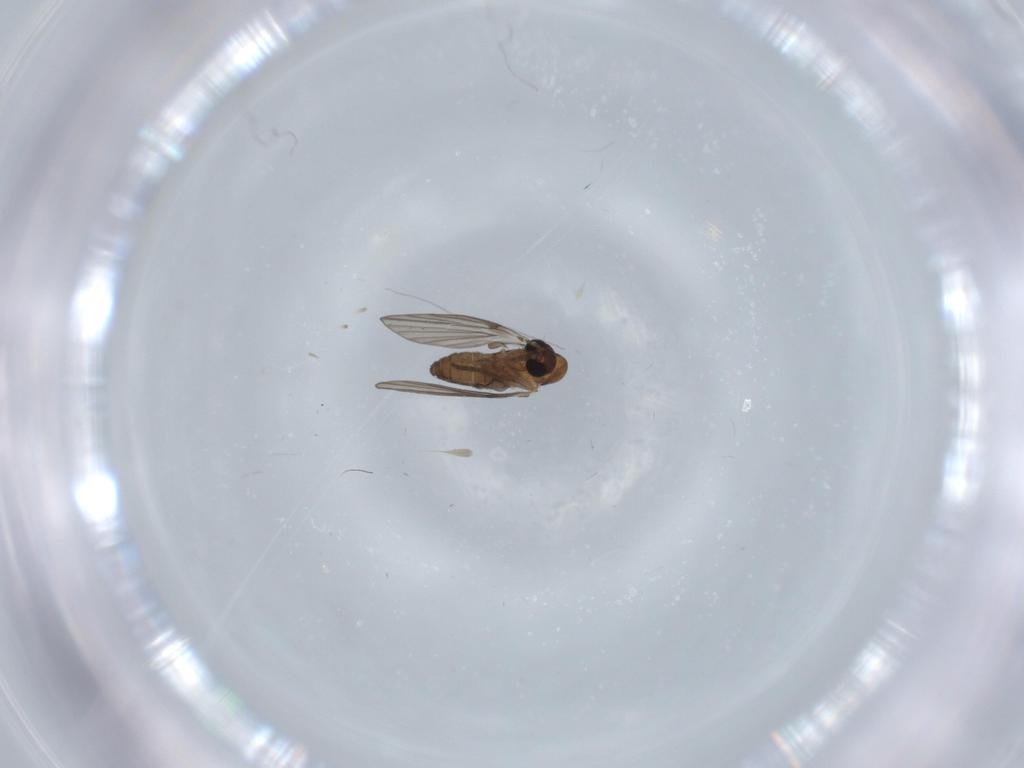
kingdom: Animalia
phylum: Arthropoda
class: Insecta
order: Diptera
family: Psychodidae
